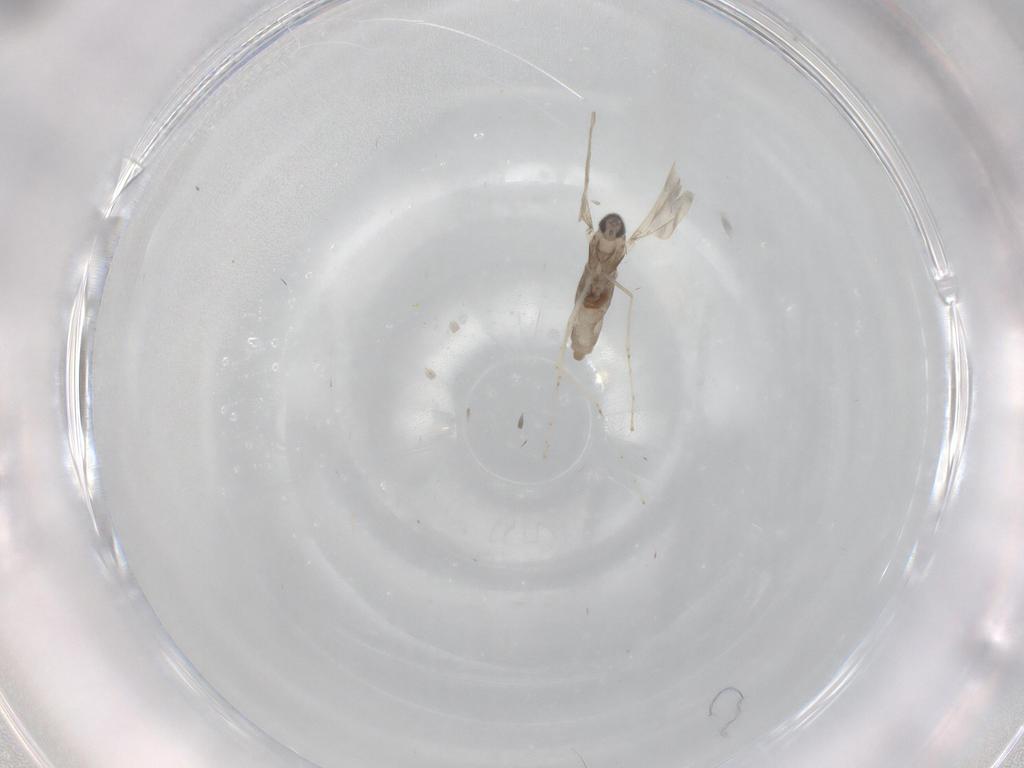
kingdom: Animalia
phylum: Arthropoda
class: Insecta
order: Diptera
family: Cecidomyiidae
